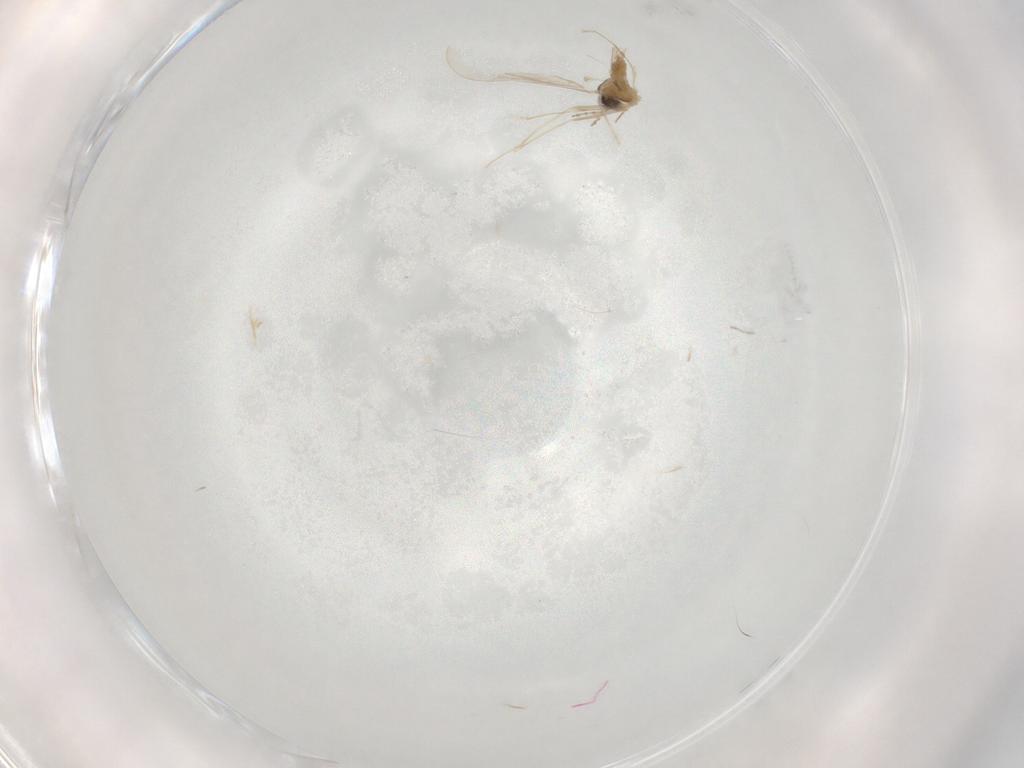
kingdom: Animalia
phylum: Arthropoda
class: Insecta
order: Diptera
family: Cecidomyiidae
